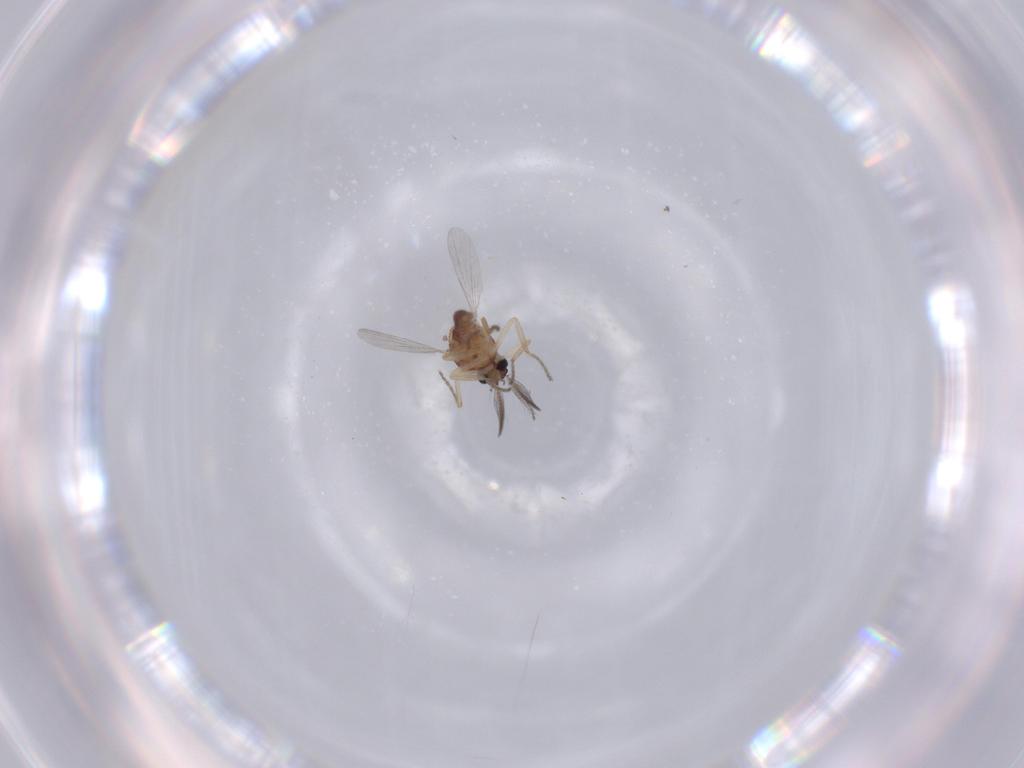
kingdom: Animalia
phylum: Arthropoda
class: Insecta
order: Diptera
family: Ceratopogonidae
